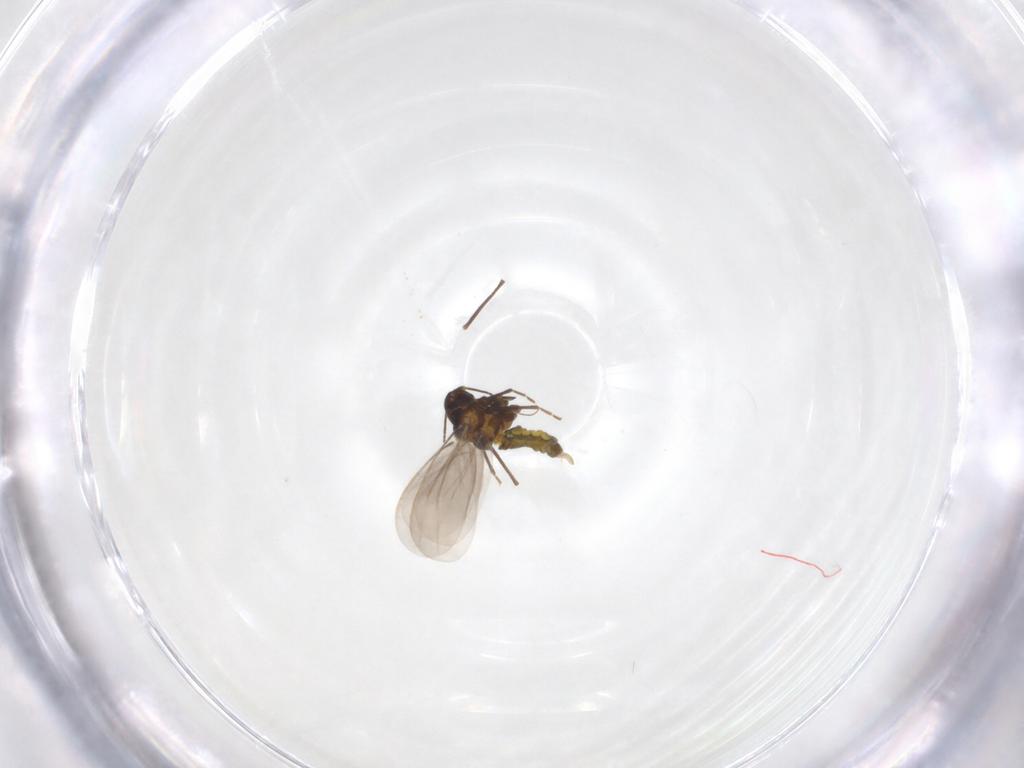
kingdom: Animalia
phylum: Arthropoda
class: Insecta
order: Hemiptera
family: Aleyrodidae
